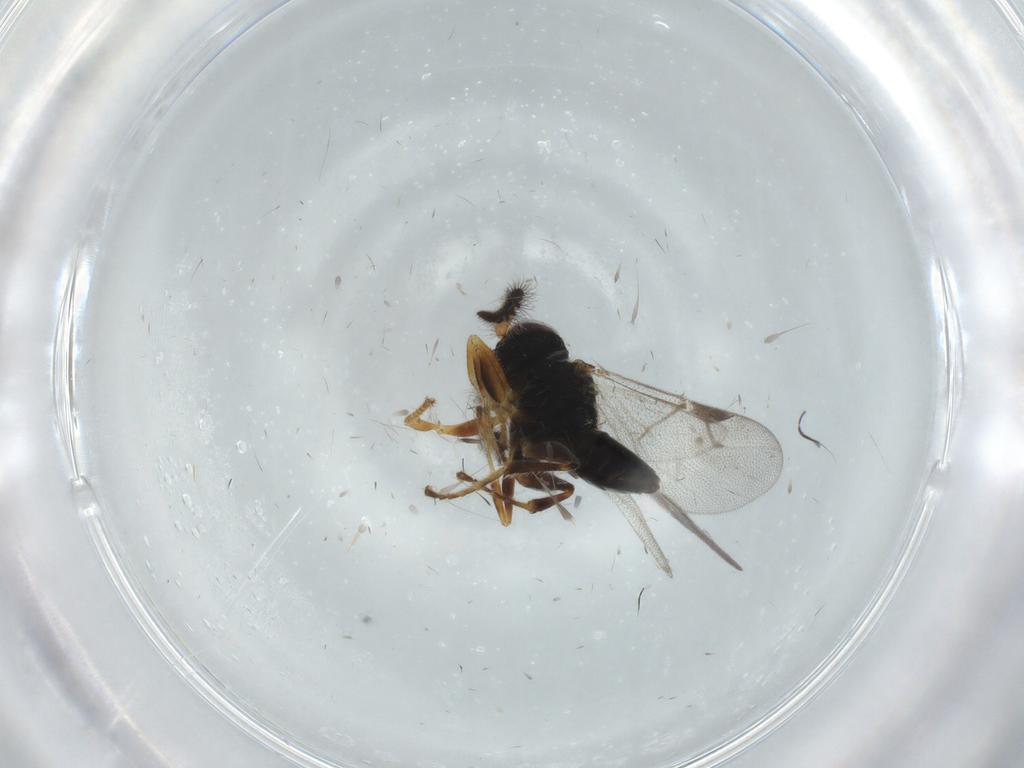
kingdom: Animalia
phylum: Arthropoda
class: Insecta
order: Hymenoptera
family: Dryinidae
